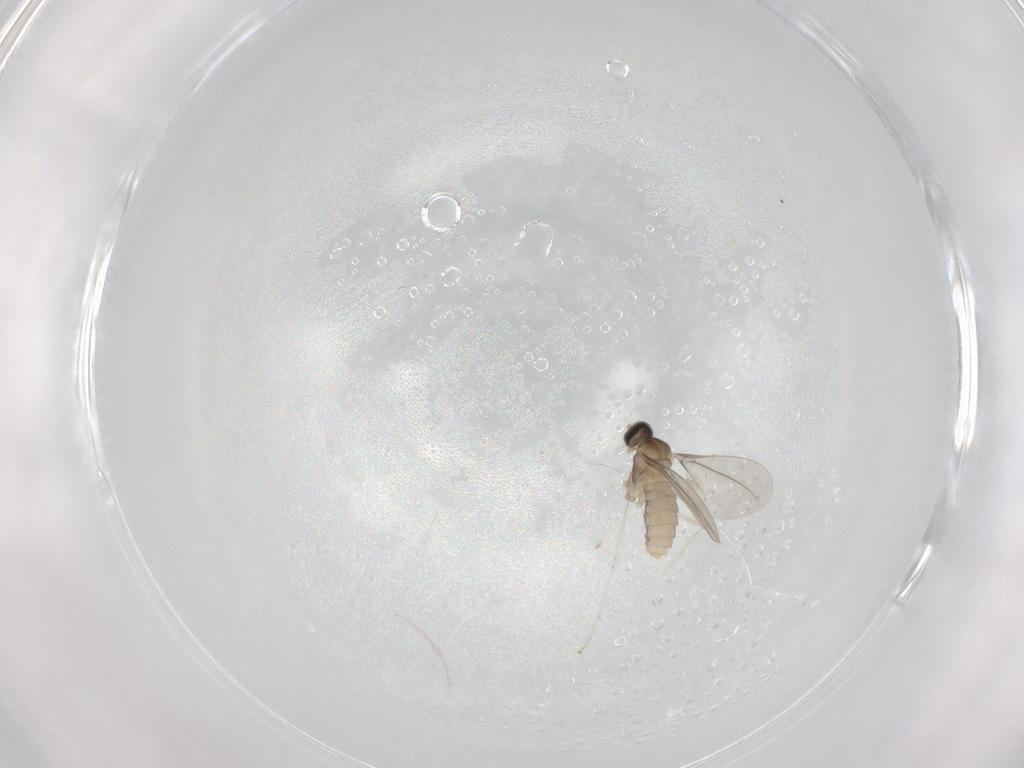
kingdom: Animalia
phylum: Arthropoda
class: Insecta
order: Diptera
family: Cecidomyiidae
